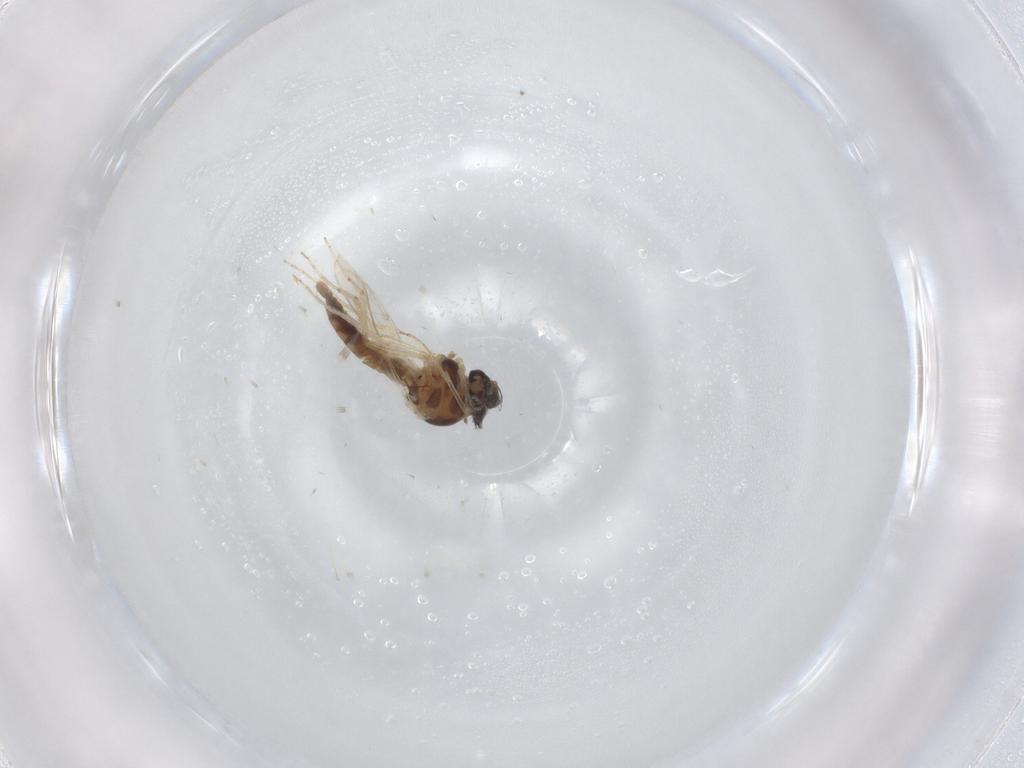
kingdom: Animalia
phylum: Arthropoda
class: Insecta
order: Diptera
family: Ceratopogonidae
